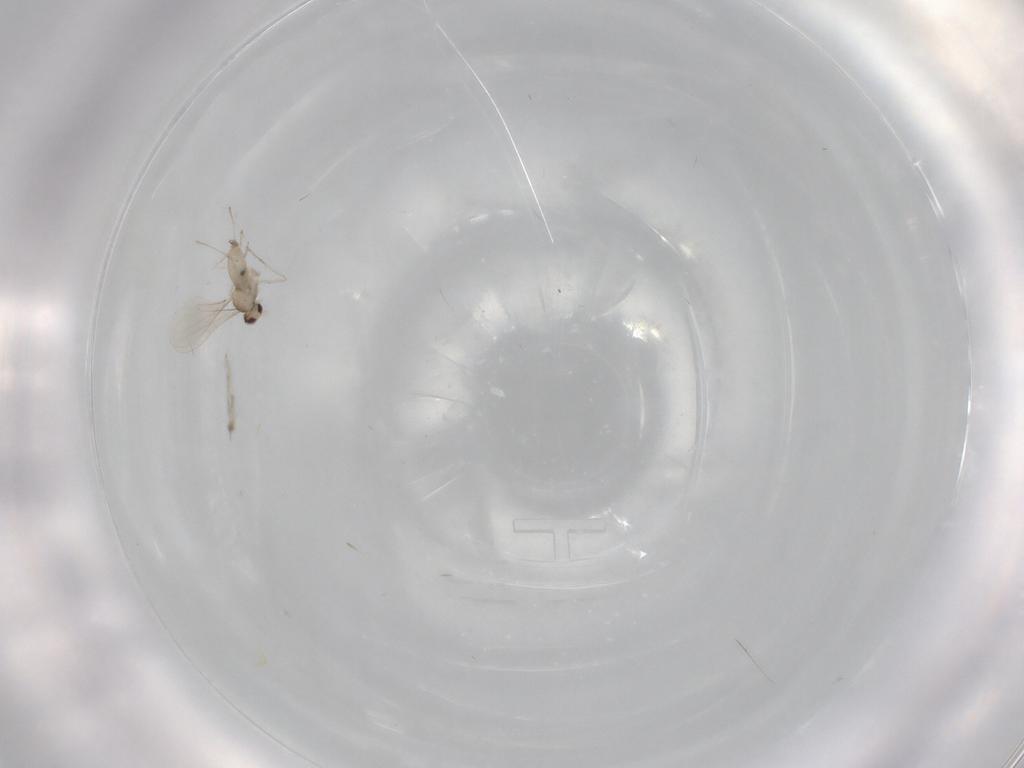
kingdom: Animalia
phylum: Arthropoda
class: Insecta
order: Diptera
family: Cecidomyiidae
